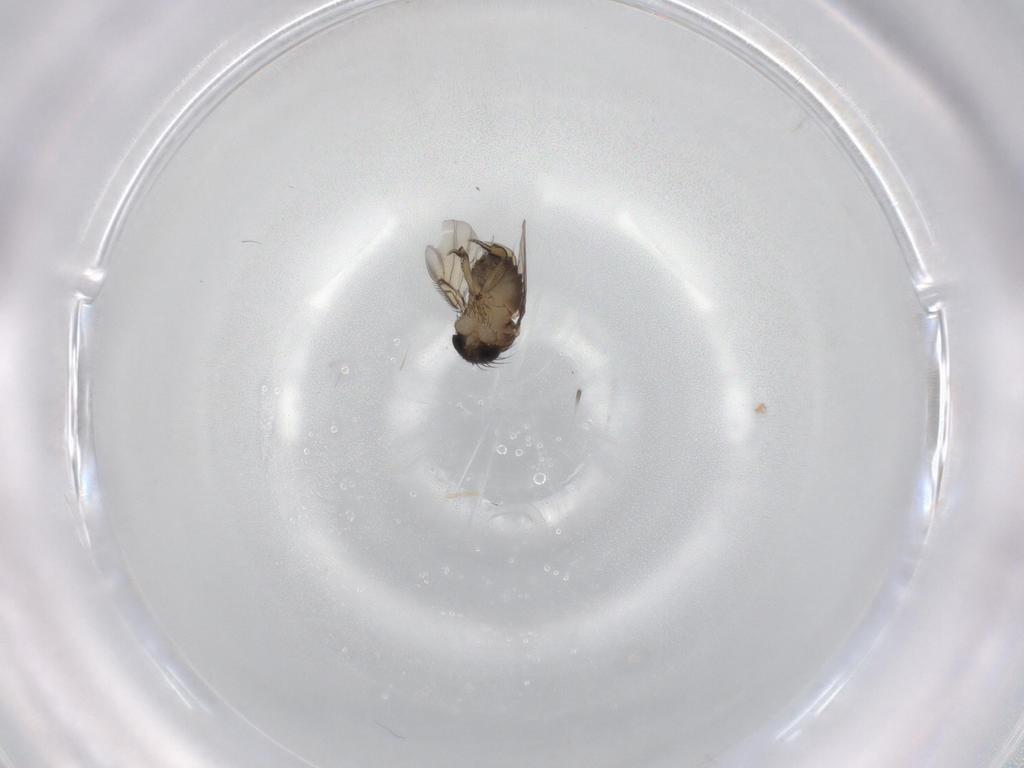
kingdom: Animalia
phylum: Arthropoda
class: Insecta
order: Diptera
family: Phoridae
